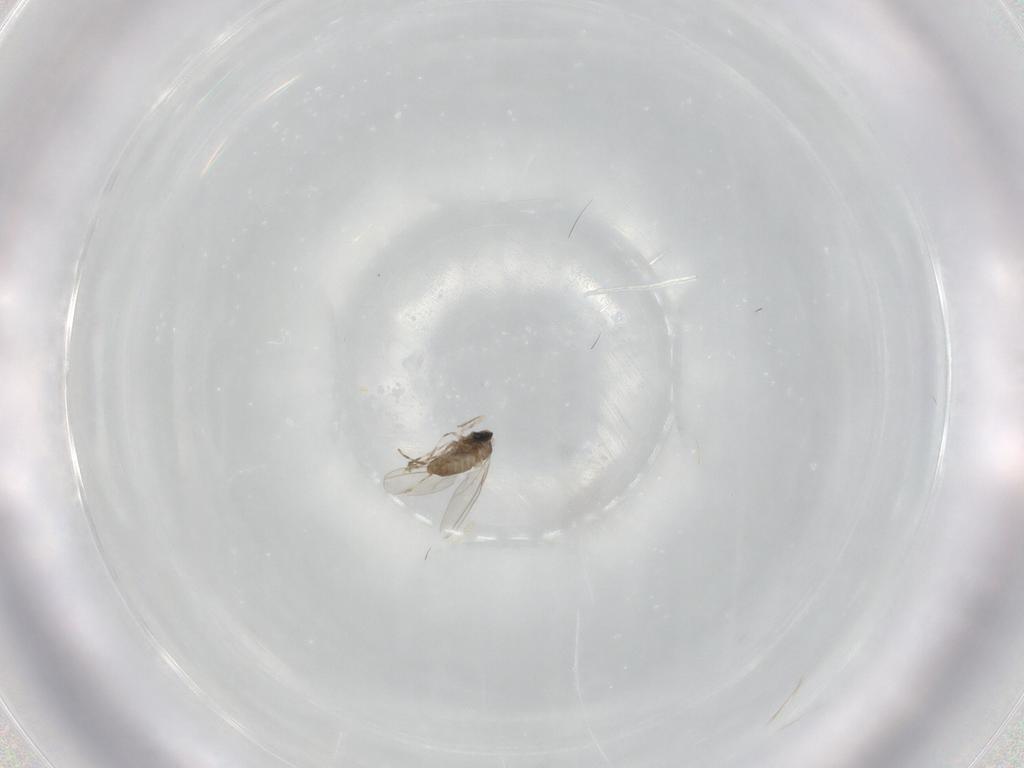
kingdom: Animalia
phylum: Arthropoda
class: Insecta
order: Diptera
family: Cecidomyiidae
